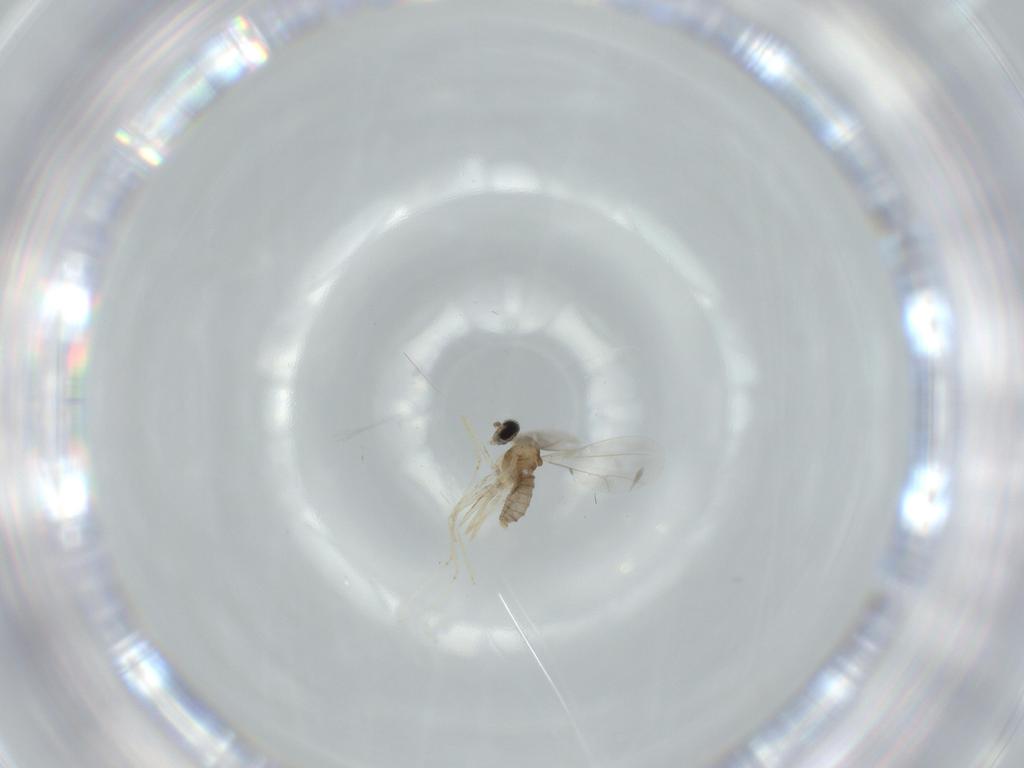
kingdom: Animalia
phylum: Arthropoda
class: Insecta
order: Diptera
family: Cecidomyiidae
